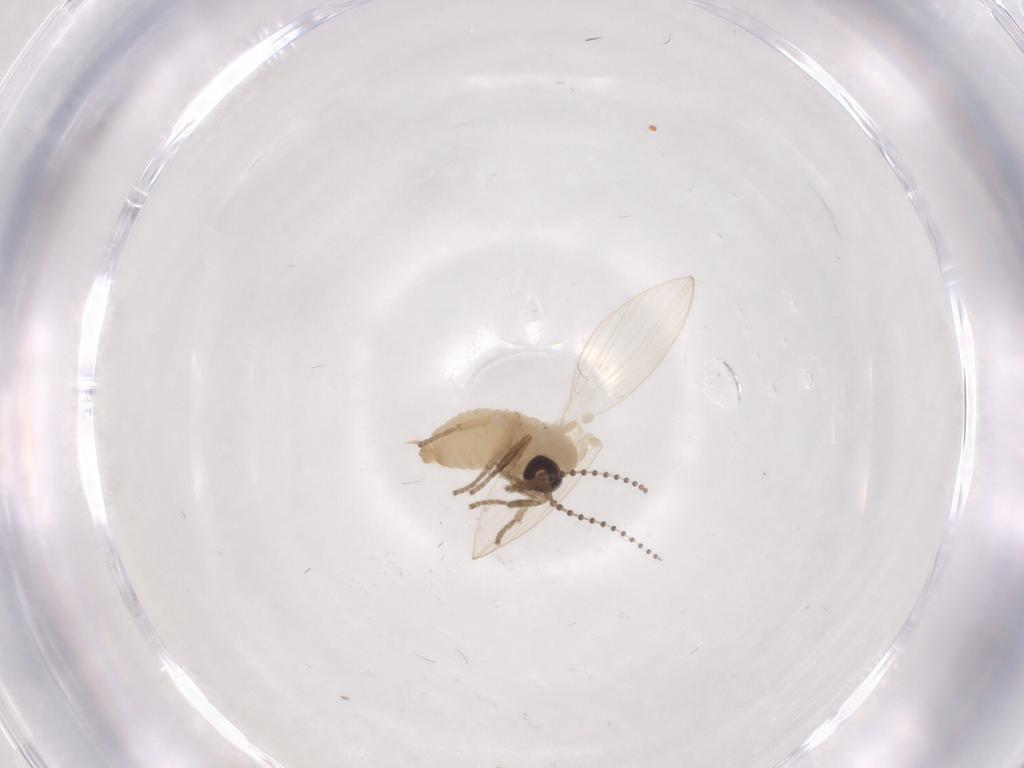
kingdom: Animalia
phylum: Arthropoda
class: Insecta
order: Diptera
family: Psychodidae
